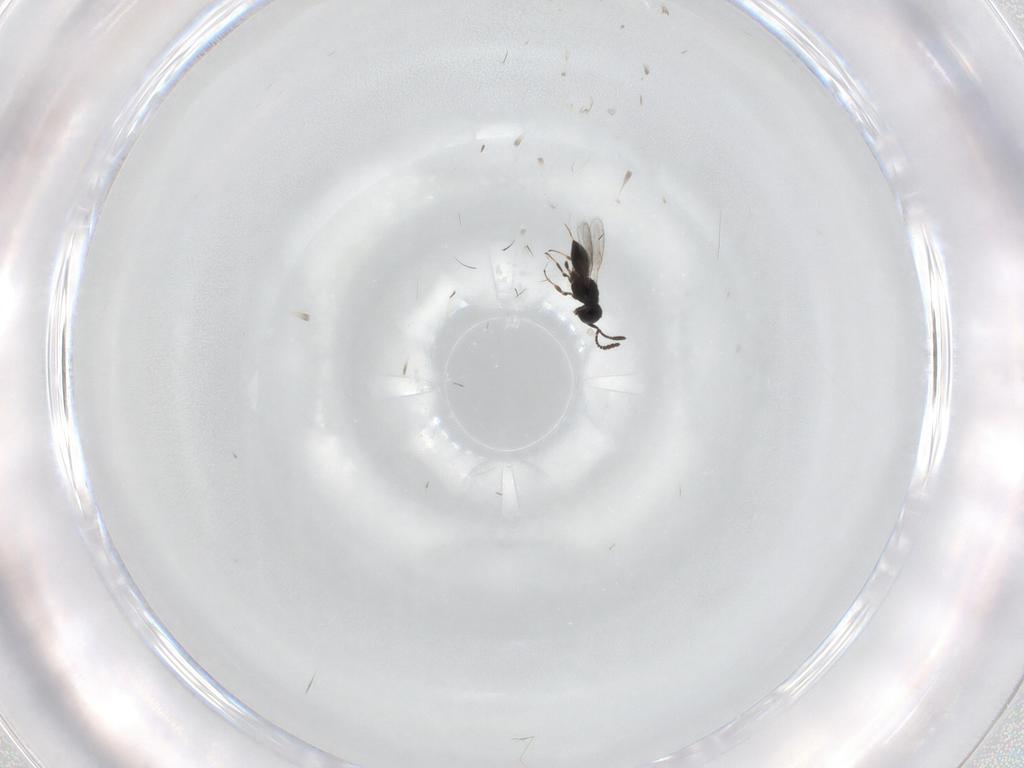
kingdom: Animalia
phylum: Arthropoda
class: Insecta
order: Hymenoptera
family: Scelionidae
